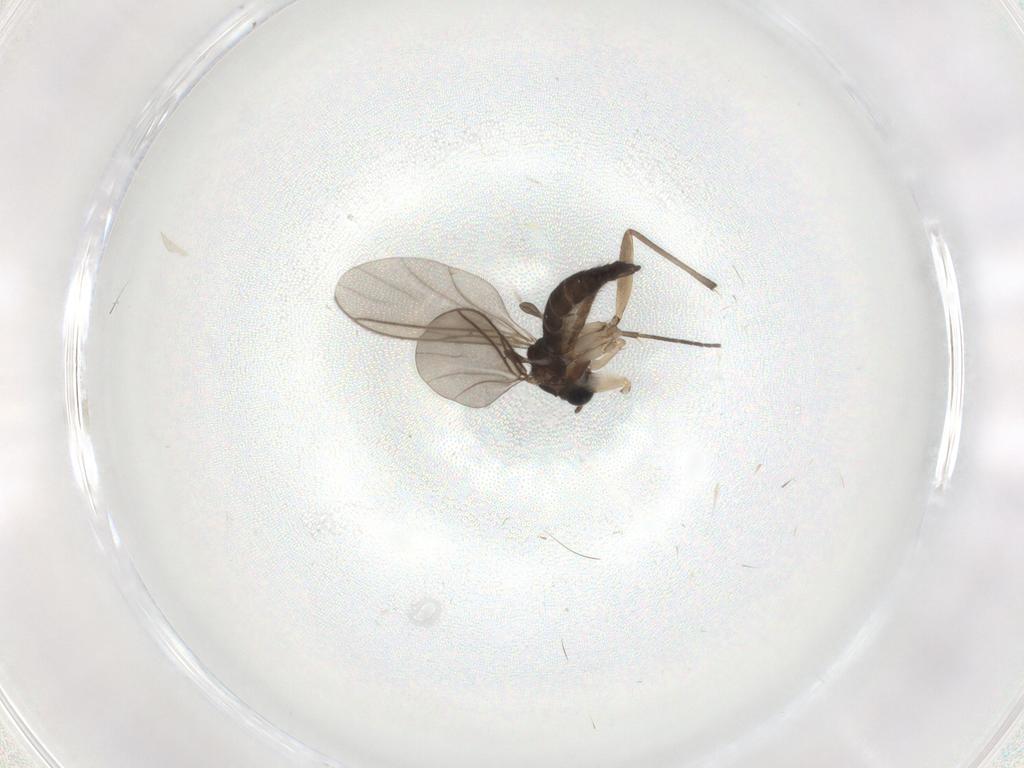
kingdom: Animalia
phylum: Arthropoda
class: Insecta
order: Diptera
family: Sciaridae
